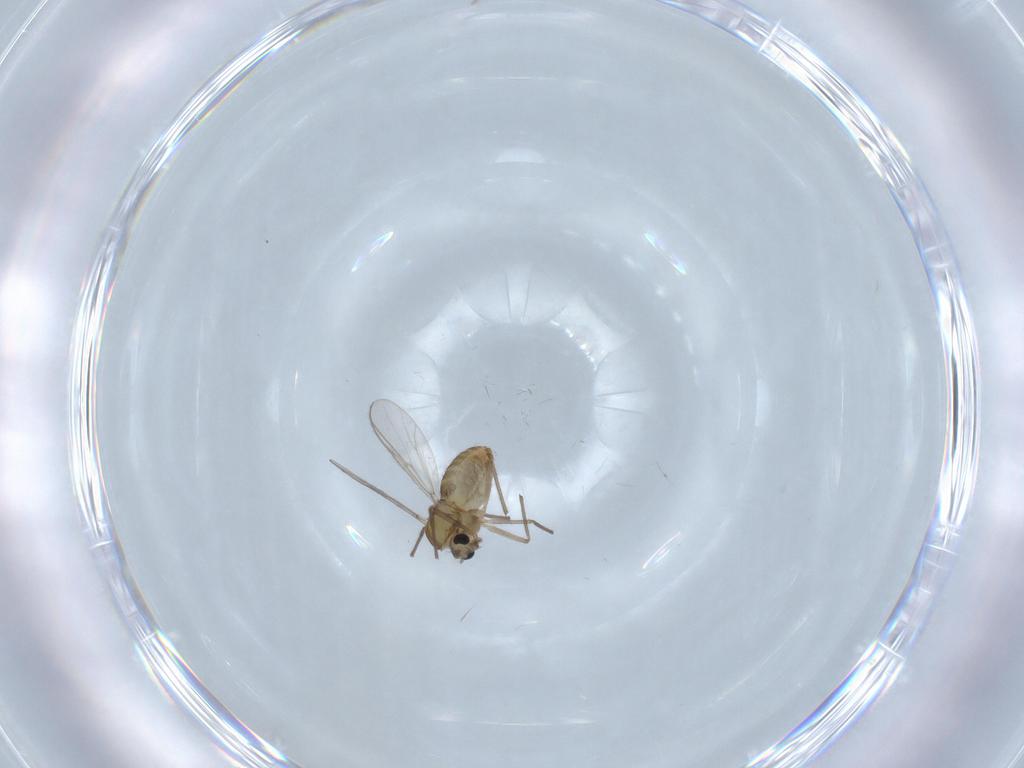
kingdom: Animalia
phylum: Arthropoda
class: Insecta
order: Diptera
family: Chironomidae
